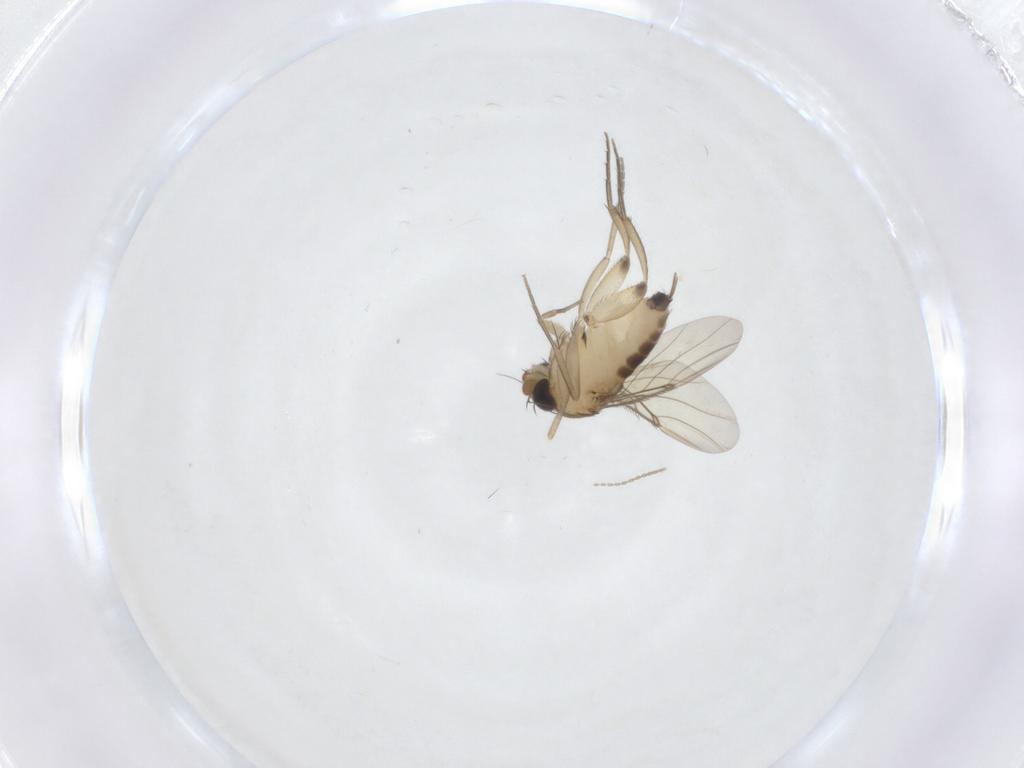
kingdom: Animalia
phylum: Arthropoda
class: Insecta
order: Diptera
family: Phoridae
